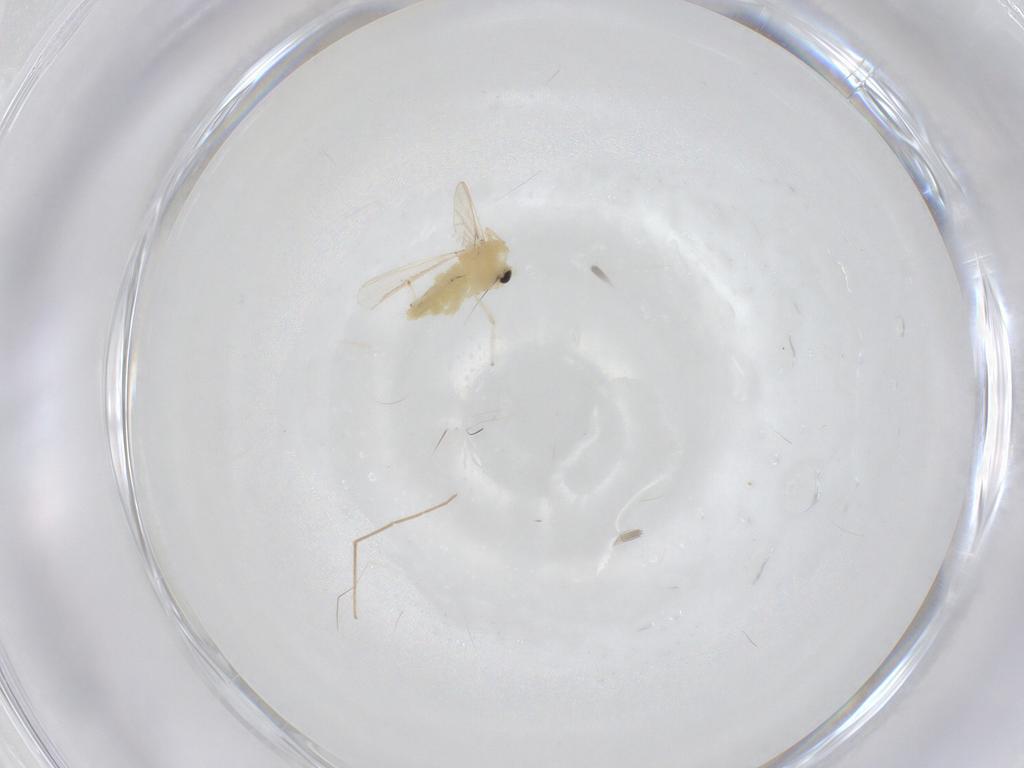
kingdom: Animalia
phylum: Arthropoda
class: Insecta
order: Diptera
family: Chironomidae
